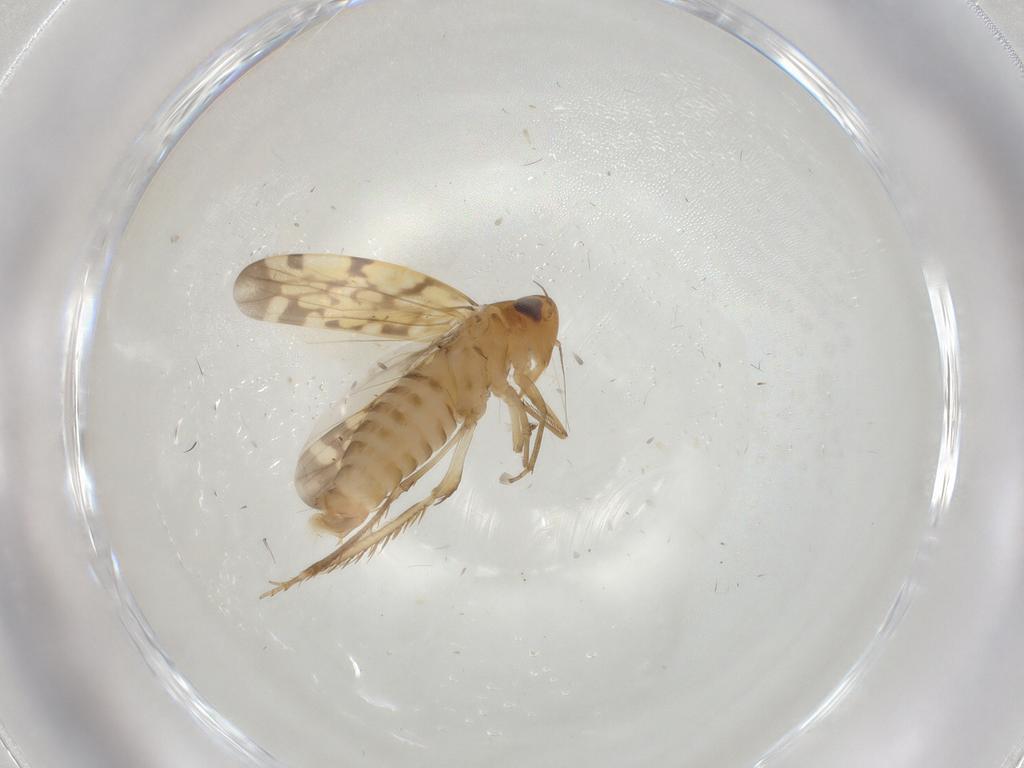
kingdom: Animalia
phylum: Arthropoda
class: Insecta
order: Hemiptera
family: Cicadellidae
